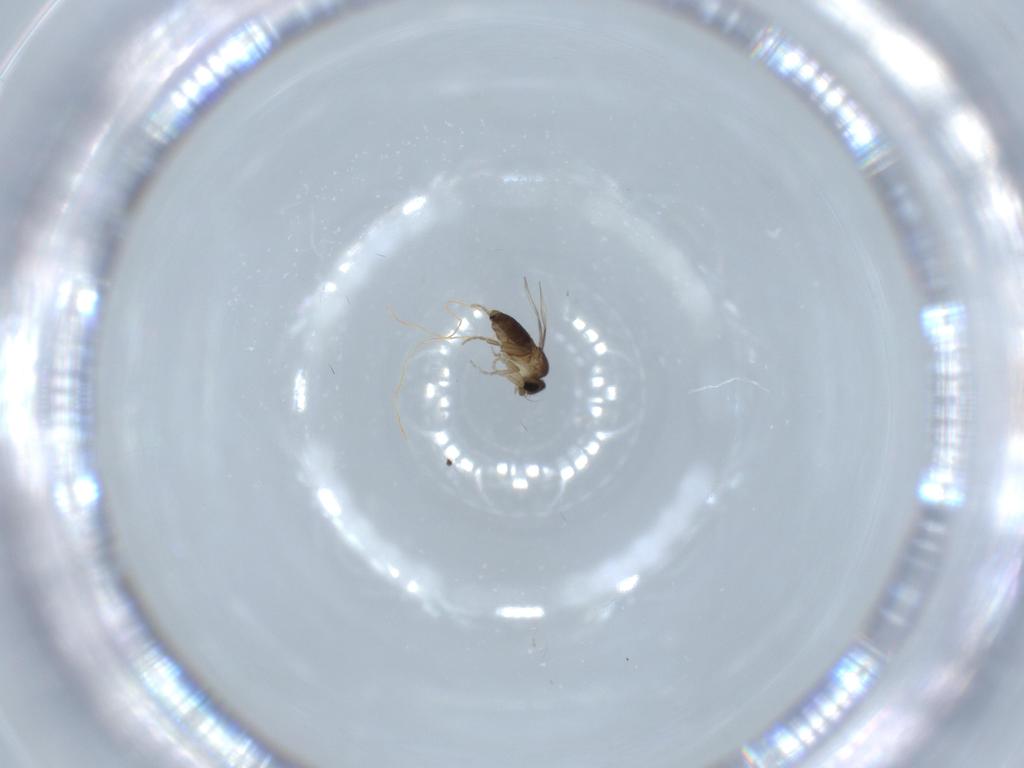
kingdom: Animalia
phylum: Arthropoda
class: Insecta
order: Diptera
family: Phoridae
